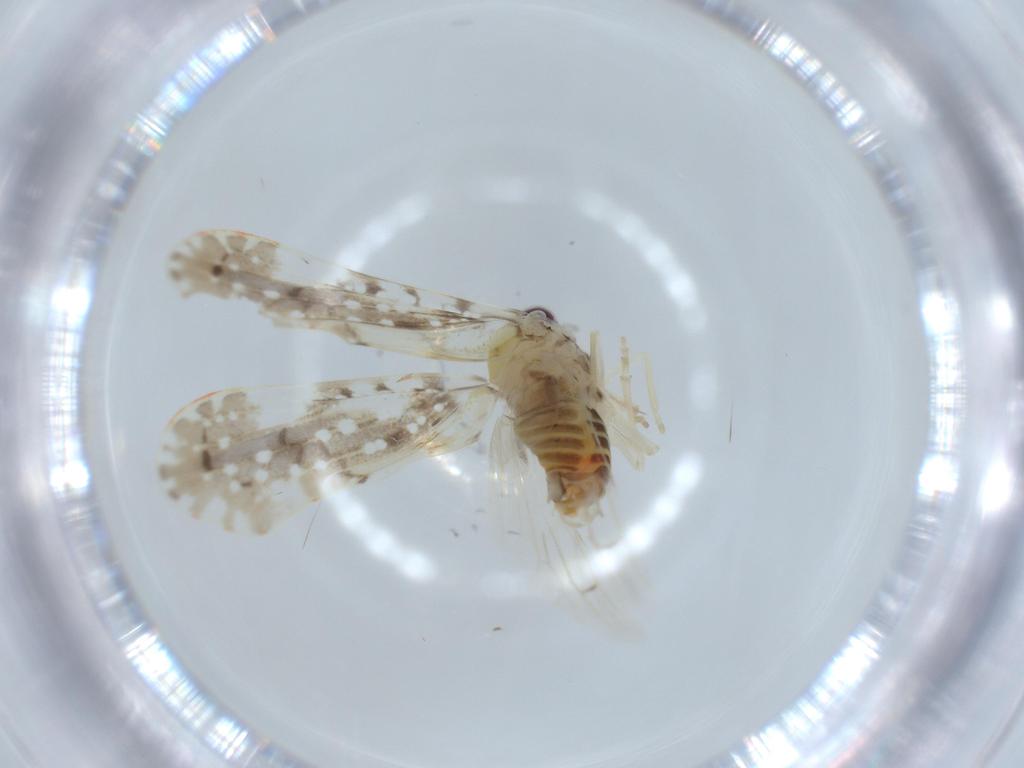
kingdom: Animalia
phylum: Arthropoda
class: Insecta
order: Hemiptera
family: Derbidae
